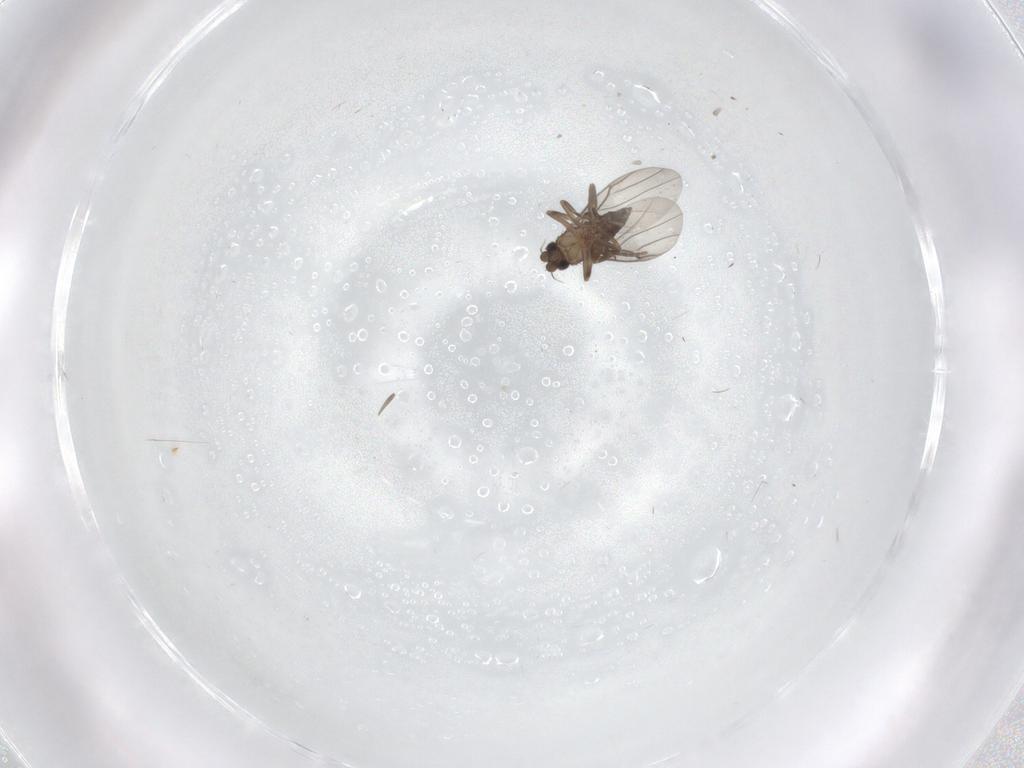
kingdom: Animalia
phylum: Arthropoda
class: Insecta
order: Diptera
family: Phoridae
